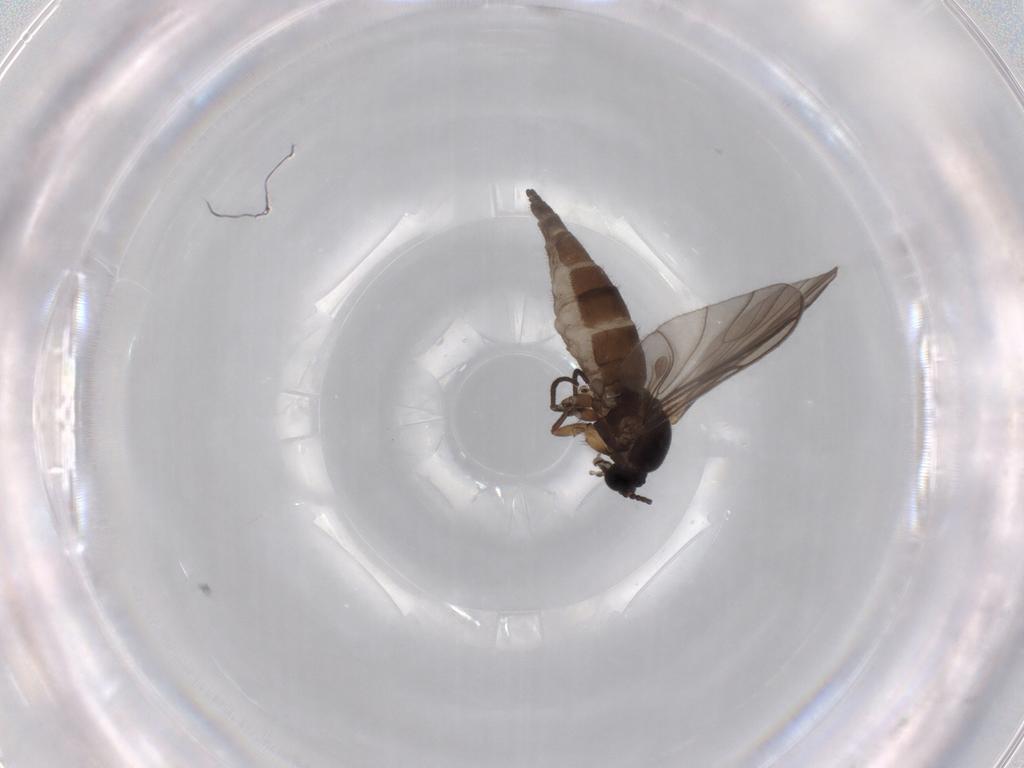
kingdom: Animalia
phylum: Arthropoda
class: Insecta
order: Diptera
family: Sciaridae
